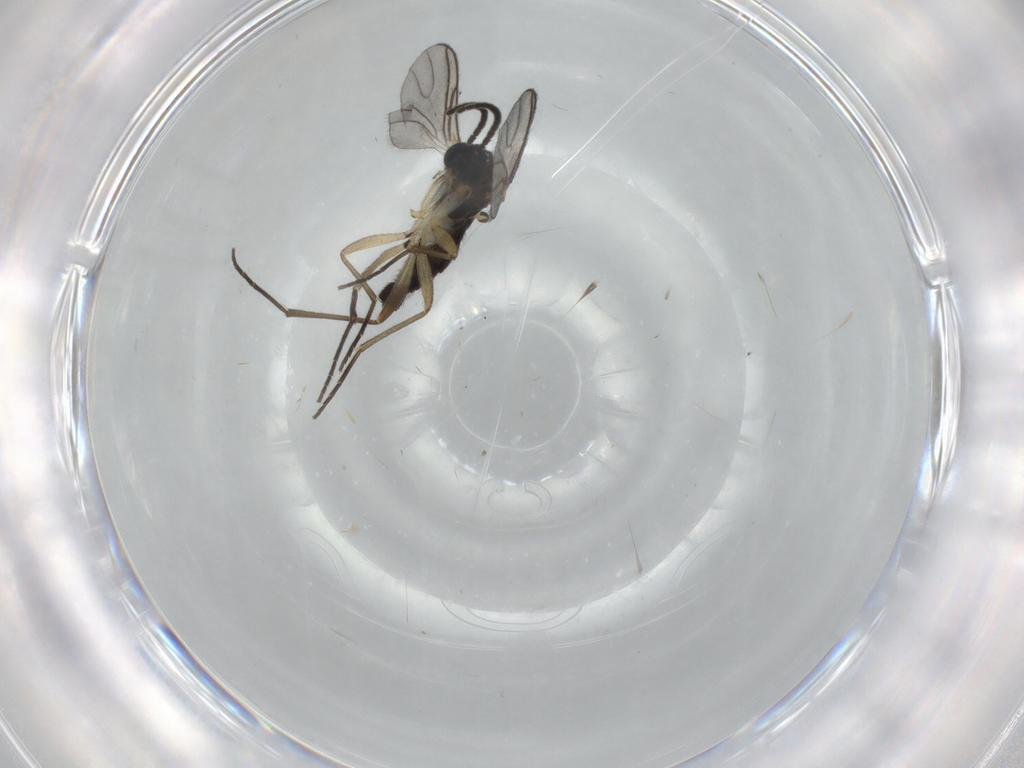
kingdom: Animalia
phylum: Arthropoda
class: Insecta
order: Diptera
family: Sciaridae
